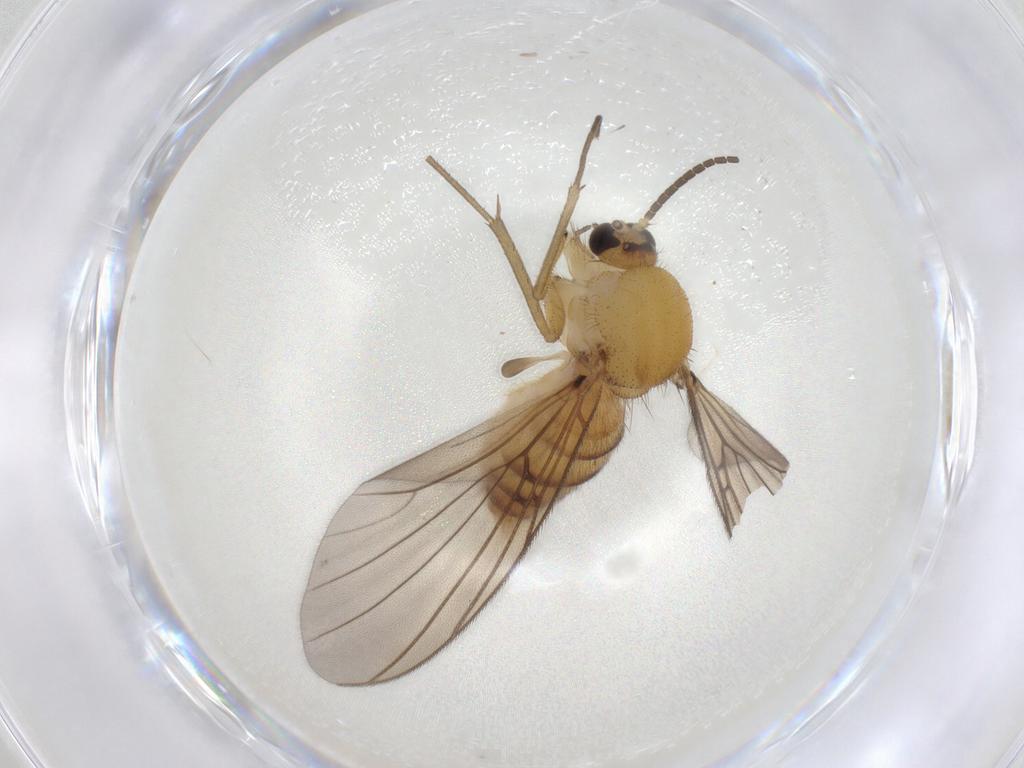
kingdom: Animalia
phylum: Arthropoda
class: Insecta
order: Diptera
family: Mycetophilidae
